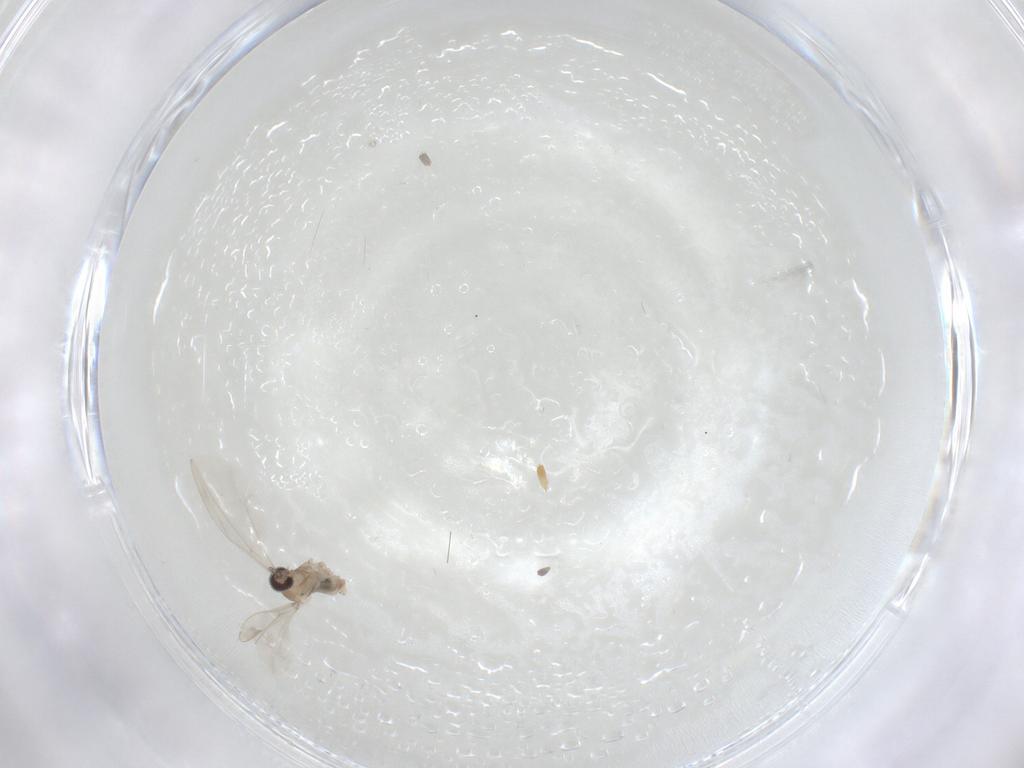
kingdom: Animalia
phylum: Arthropoda
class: Insecta
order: Diptera
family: Cecidomyiidae
